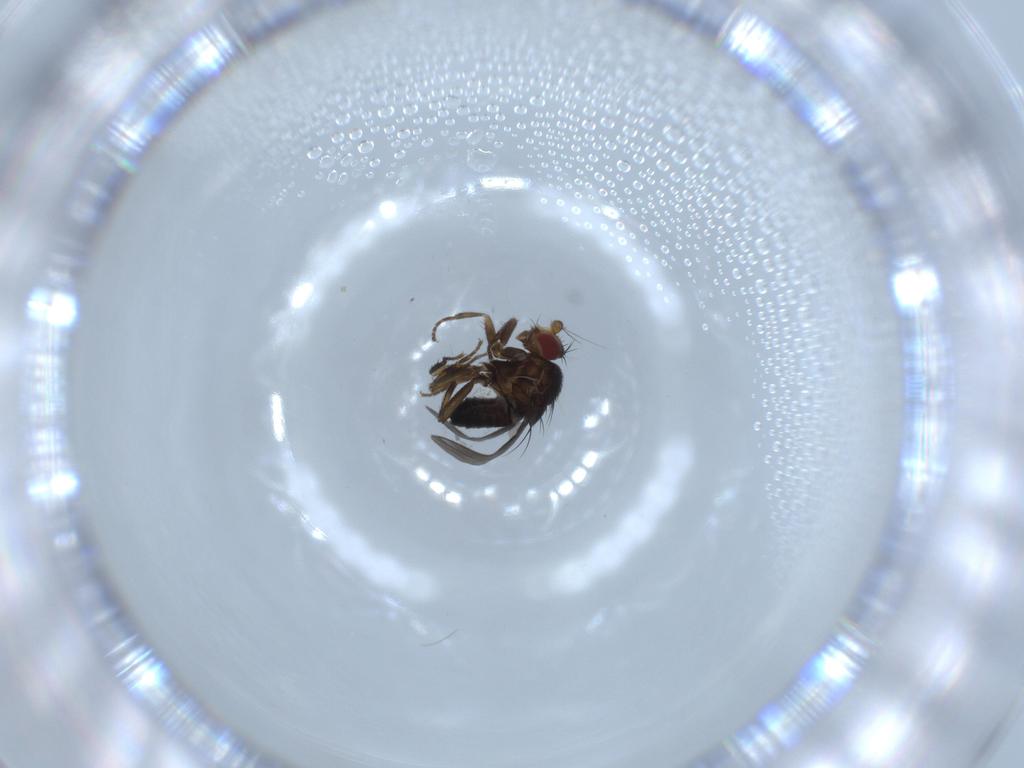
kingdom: Animalia
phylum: Arthropoda
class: Insecta
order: Diptera
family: Sphaeroceridae
